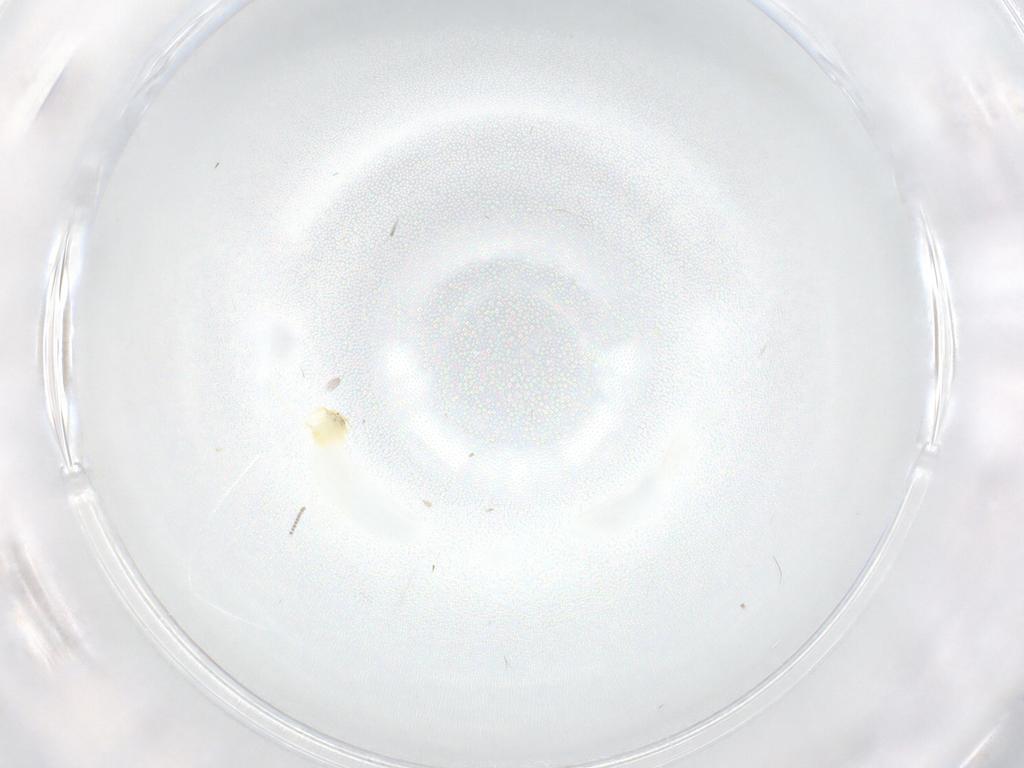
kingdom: Animalia
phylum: Arthropoda
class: Insecta
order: Hemiptera
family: Aleyrodidae
